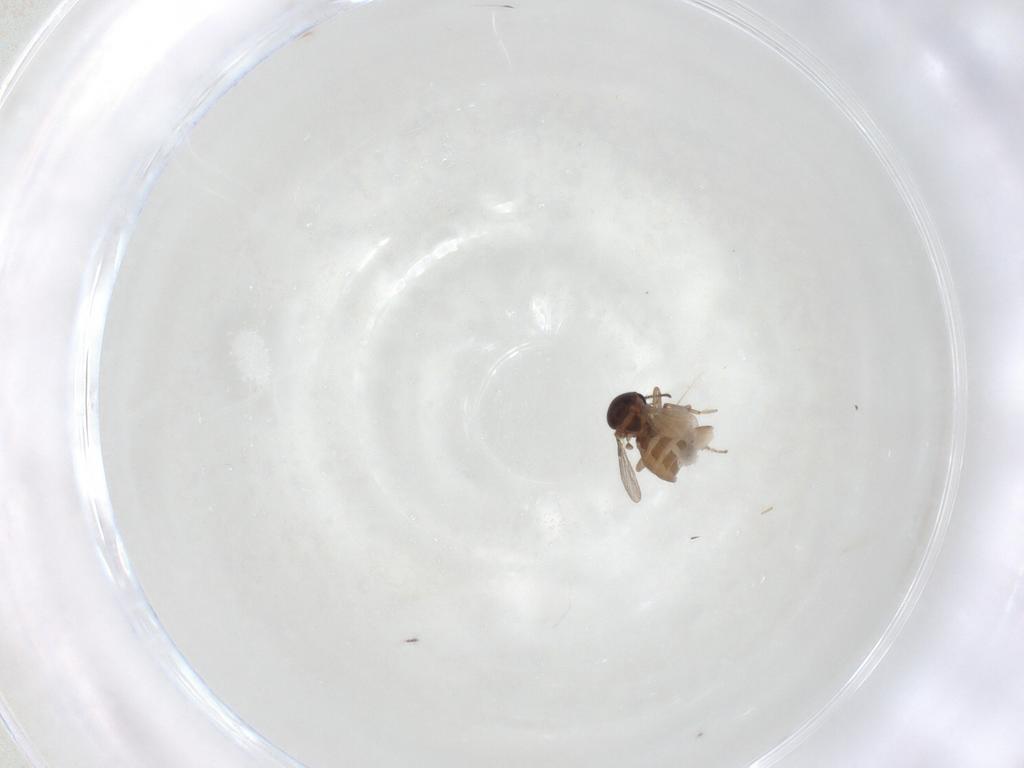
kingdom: Animalia
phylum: Arthropoda
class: Insecta
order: Diptera
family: Ceratopogonidae
